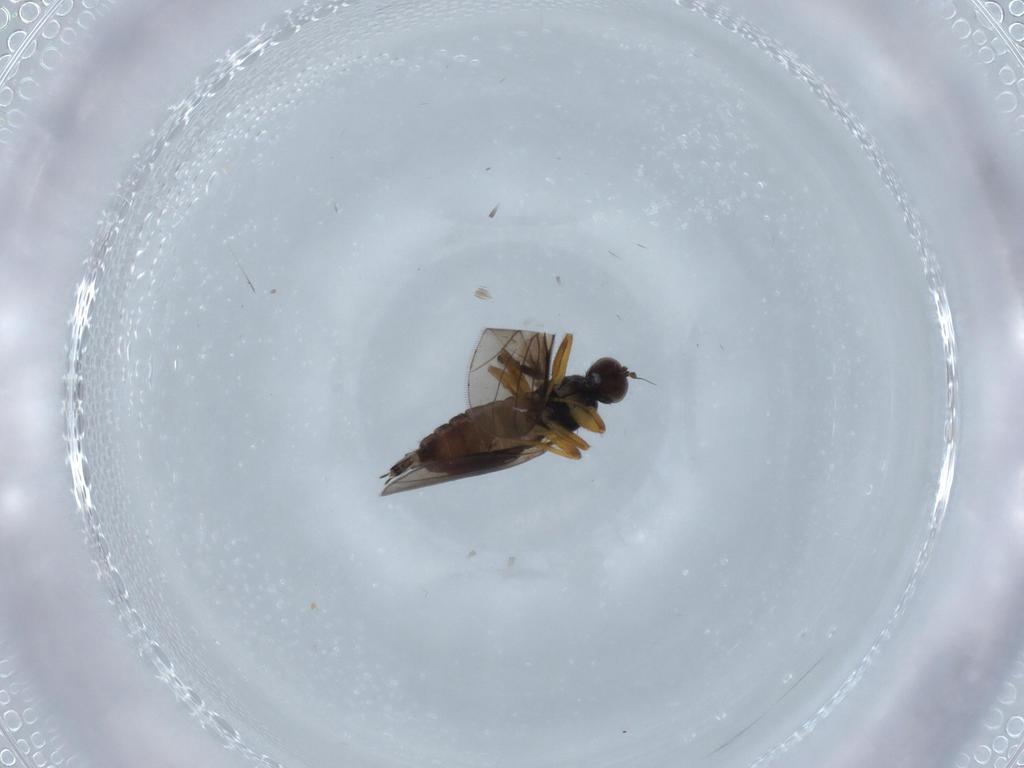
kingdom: Animalia
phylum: Arthropoda
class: Insecta
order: Diptera
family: Hybotidae
